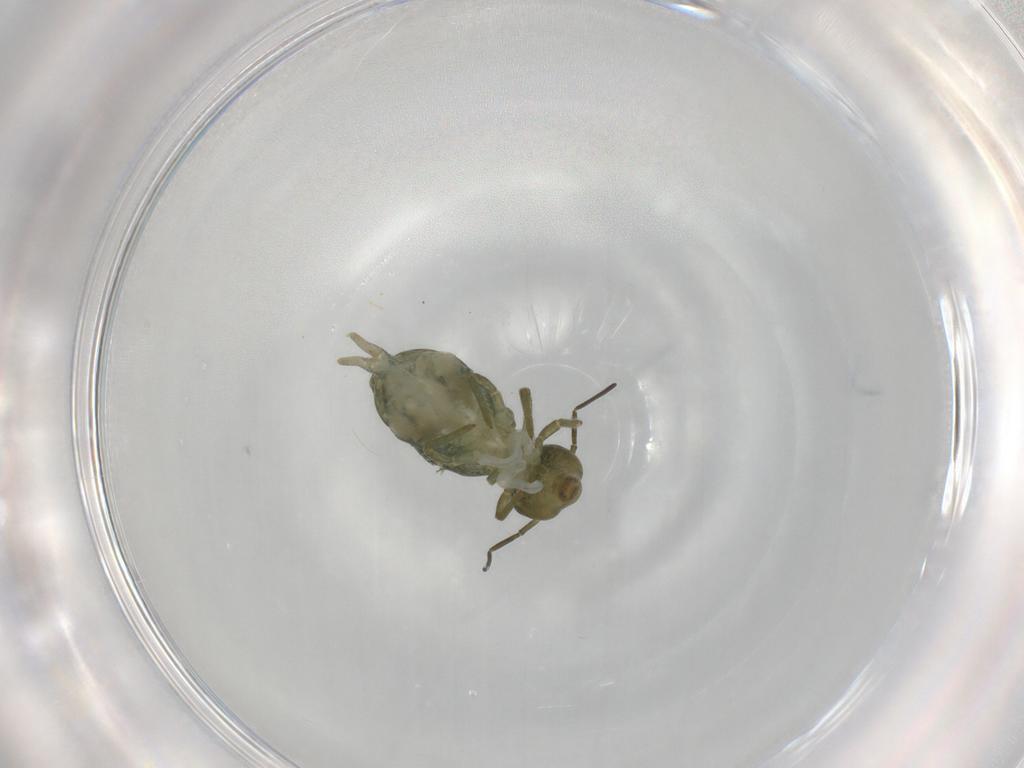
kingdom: Animalia
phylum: Arthropoda
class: Collembola
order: Symphypleona
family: Sminthuridae
